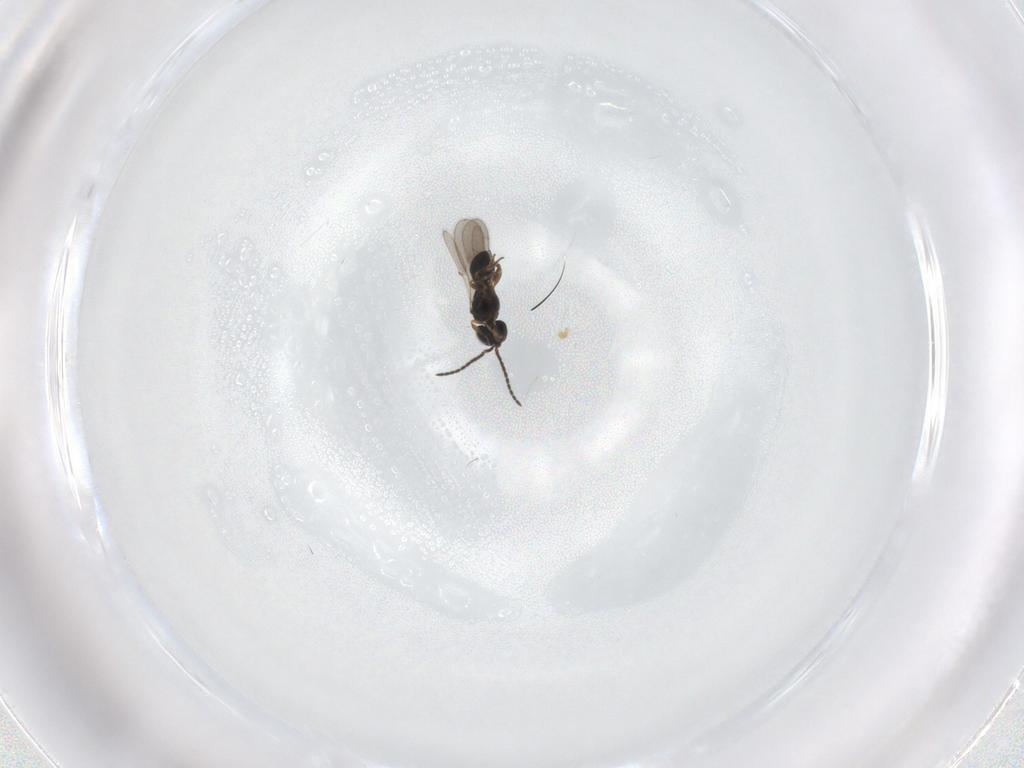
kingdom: Animalia
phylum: Arthropoda
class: Insecta
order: Hymenoptera
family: Scelionidae
